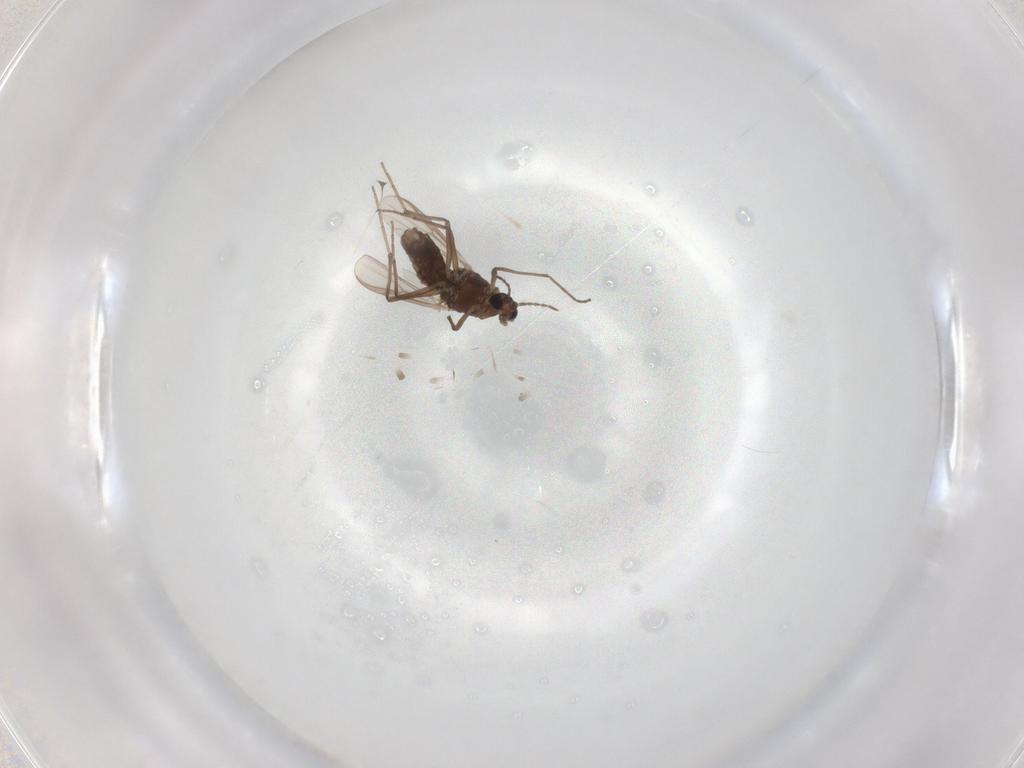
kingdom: Animalia
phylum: Arthropoda
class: Insecta
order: Diptera
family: Chironomidae
